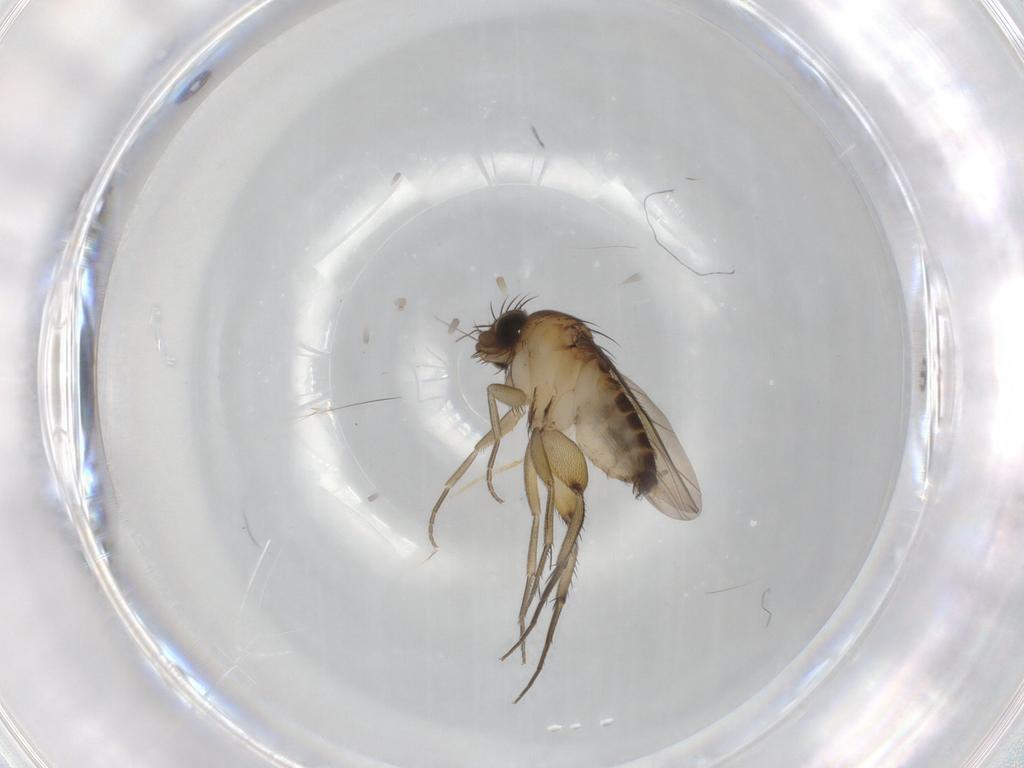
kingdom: Animalia
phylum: Arthropoda
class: Insecta
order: Diptera
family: Phoridae
